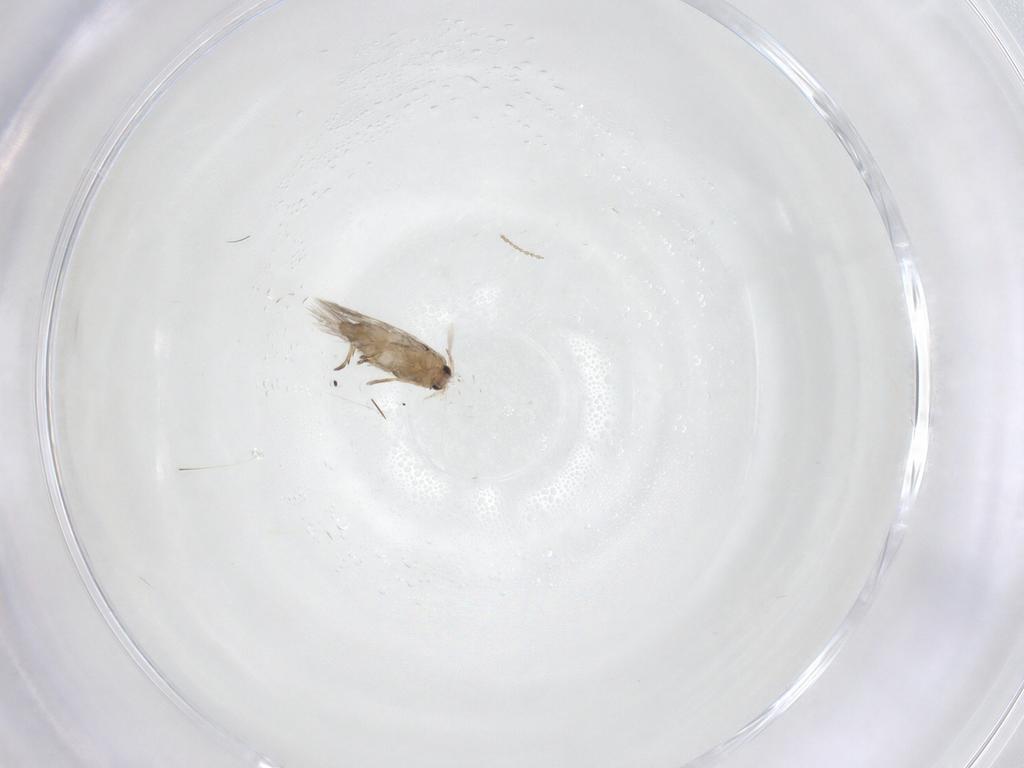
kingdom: Animalia
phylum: Arthropoda
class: Insecta
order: Lepidoptera
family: Nepticulidae
